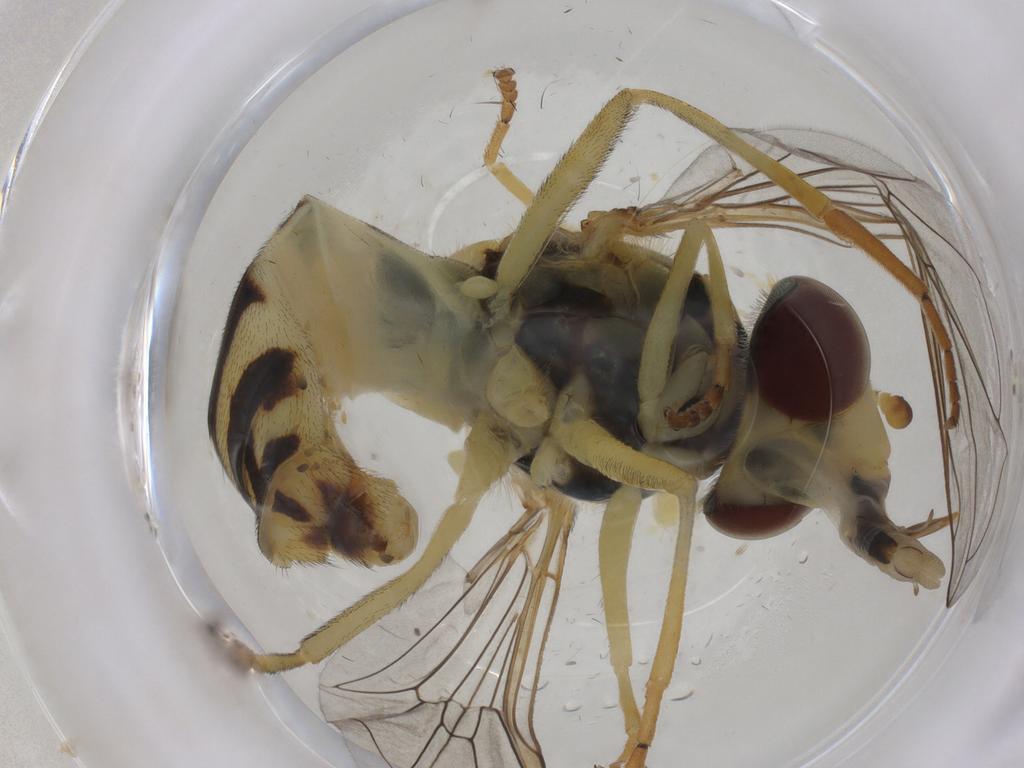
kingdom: Animalia
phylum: Arthropoda
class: Insecta
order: Diptera
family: Syrphidae
